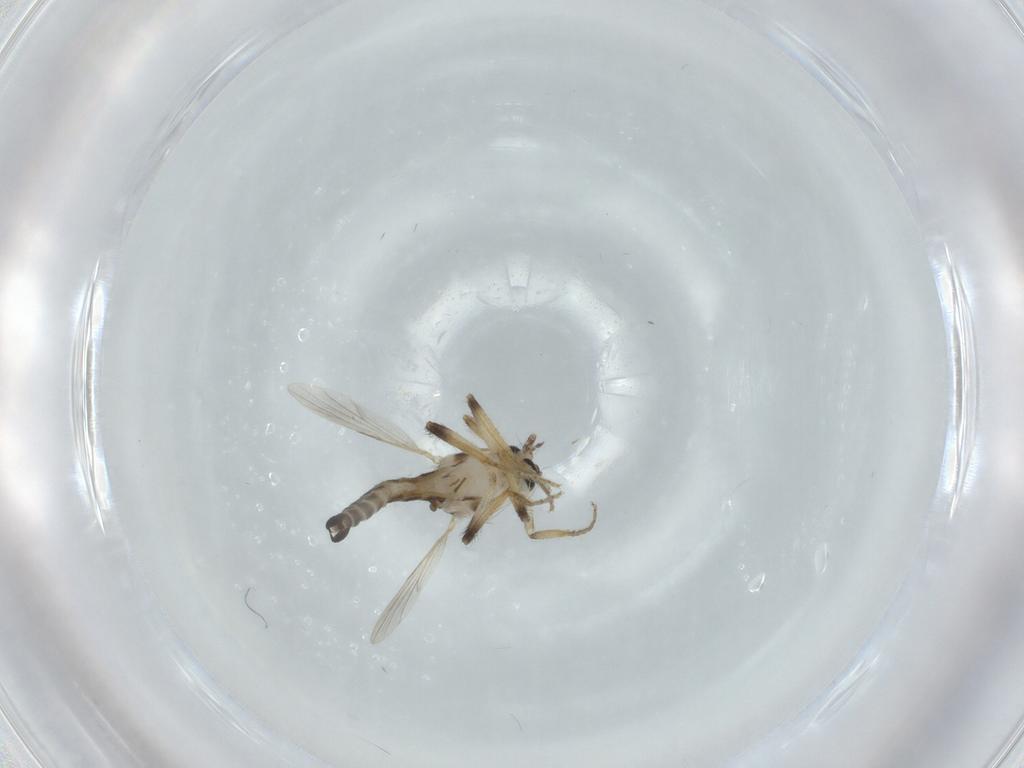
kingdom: Animalia
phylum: Arthropoda
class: Insecta
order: Diptera
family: Ceratopogonidae
